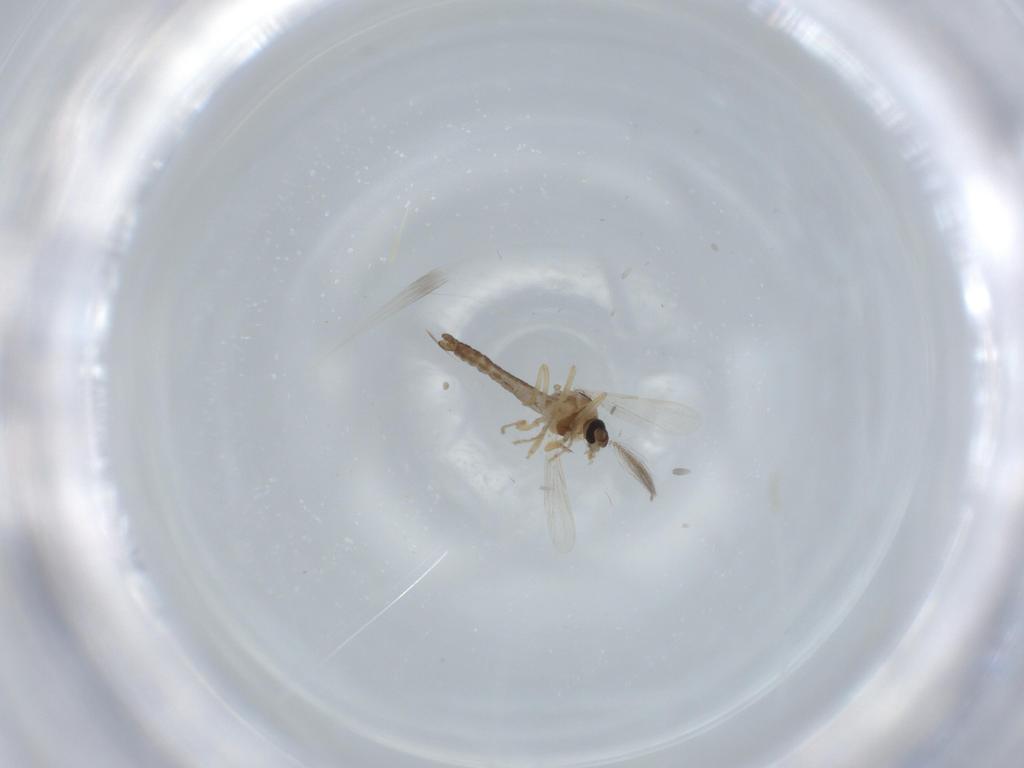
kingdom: Animalia
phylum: Arthropoda
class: Insecta
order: Diptera
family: Ceratopogonidae
